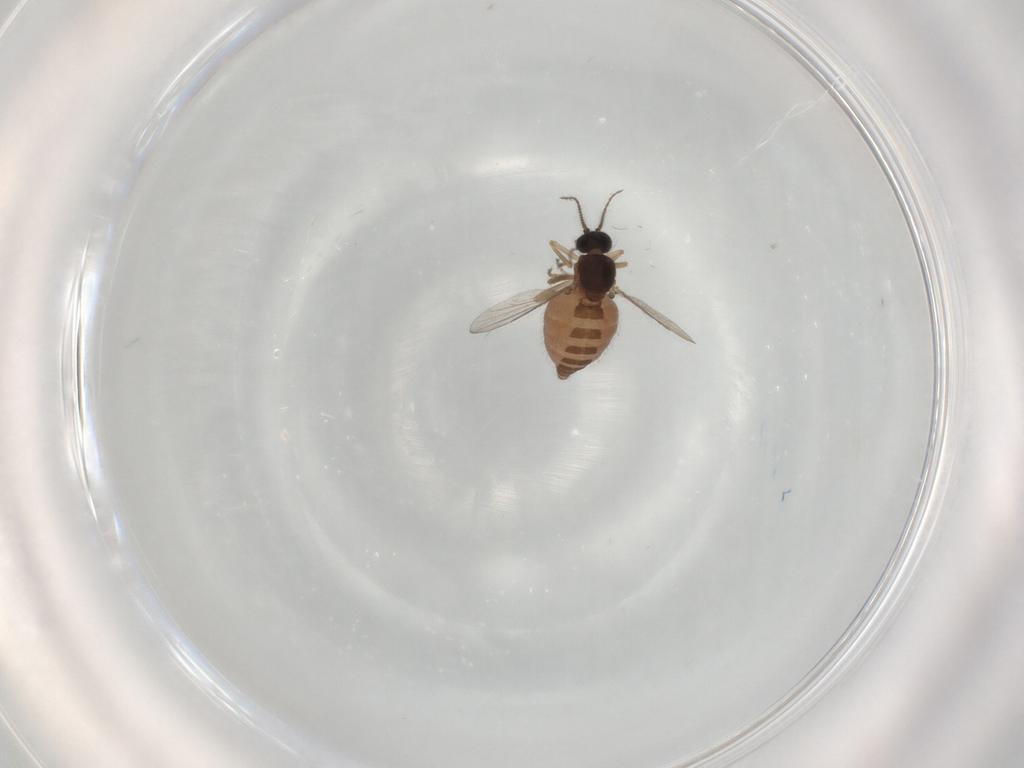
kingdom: Animalia
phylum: Arthropoda
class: Insecta
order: Diptera
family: Ceratopogonidae
